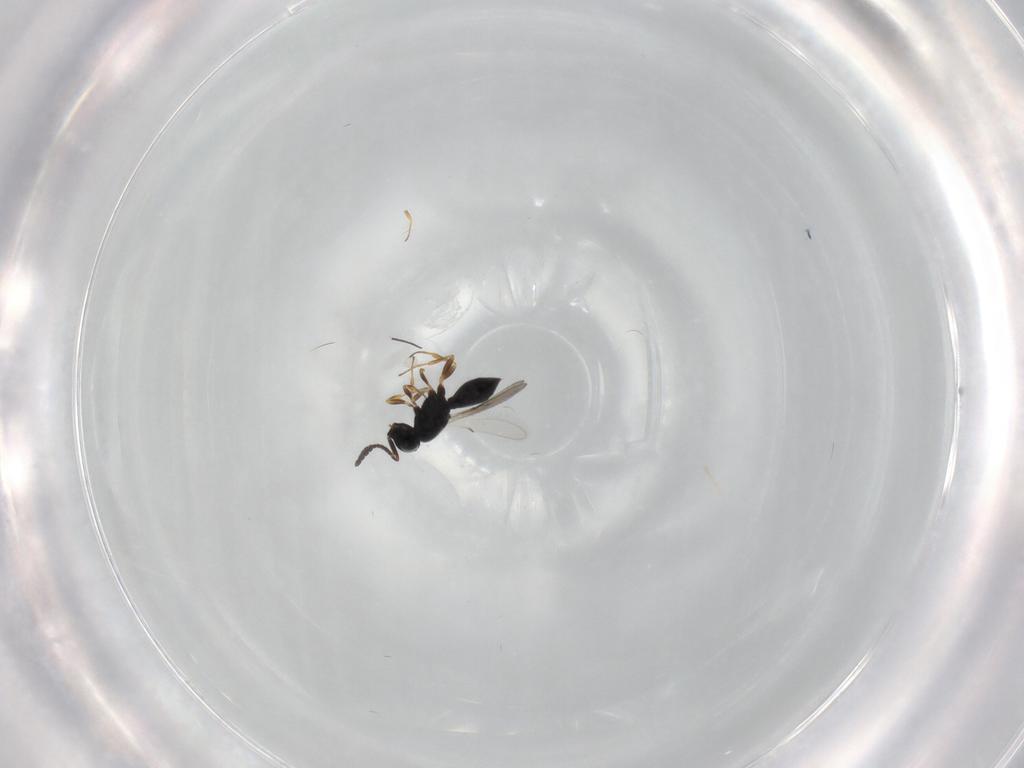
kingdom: Animalia
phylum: Arthropoda
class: Insecta
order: Hymenoptera
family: Scelionidae
